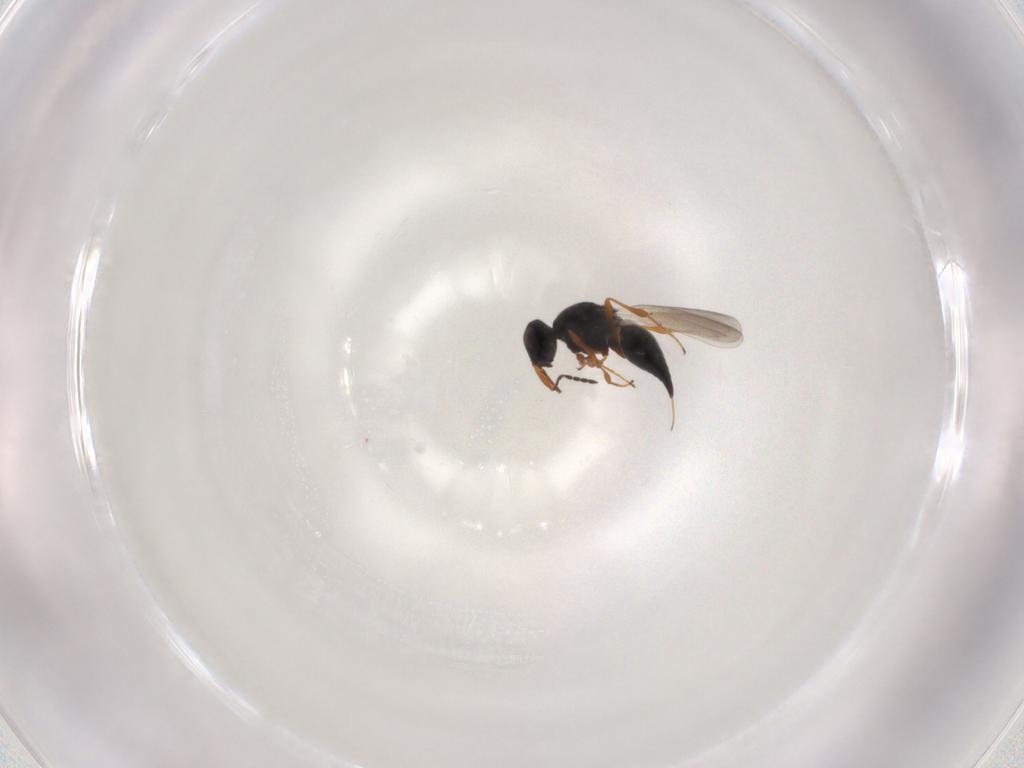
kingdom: Animalia
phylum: Arthropoda
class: Insecta
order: Hymenoptera
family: Platygastridae
